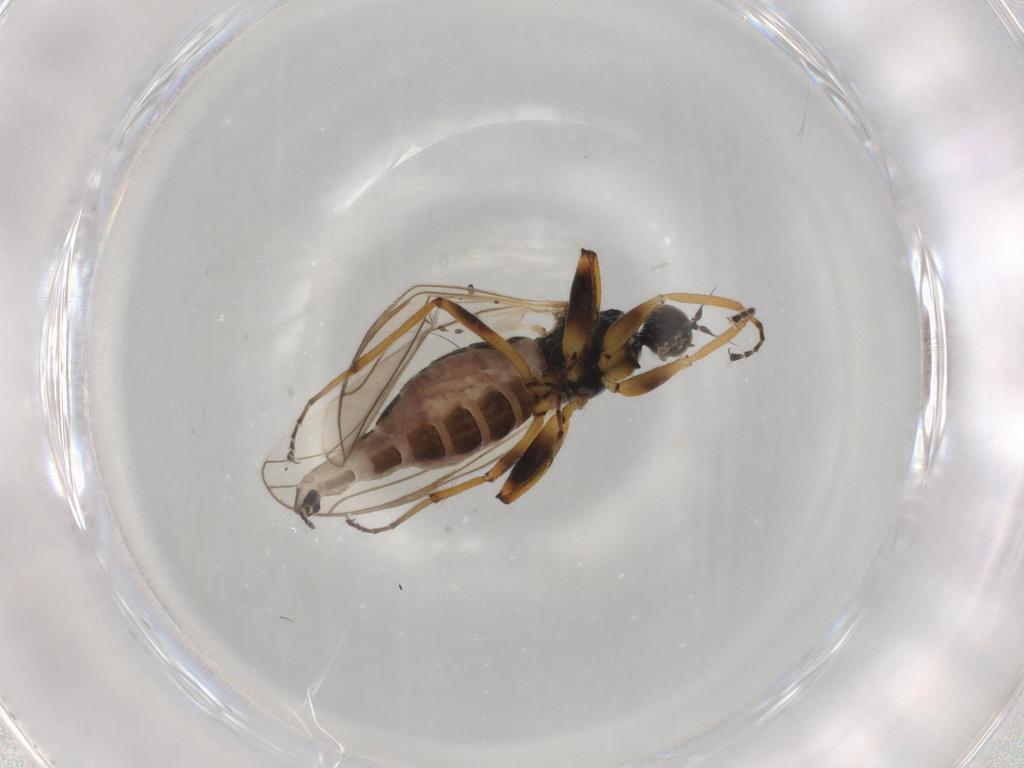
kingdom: Animalia
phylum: Arthropoda
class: Insecta
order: Diptera
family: Hybotidae
